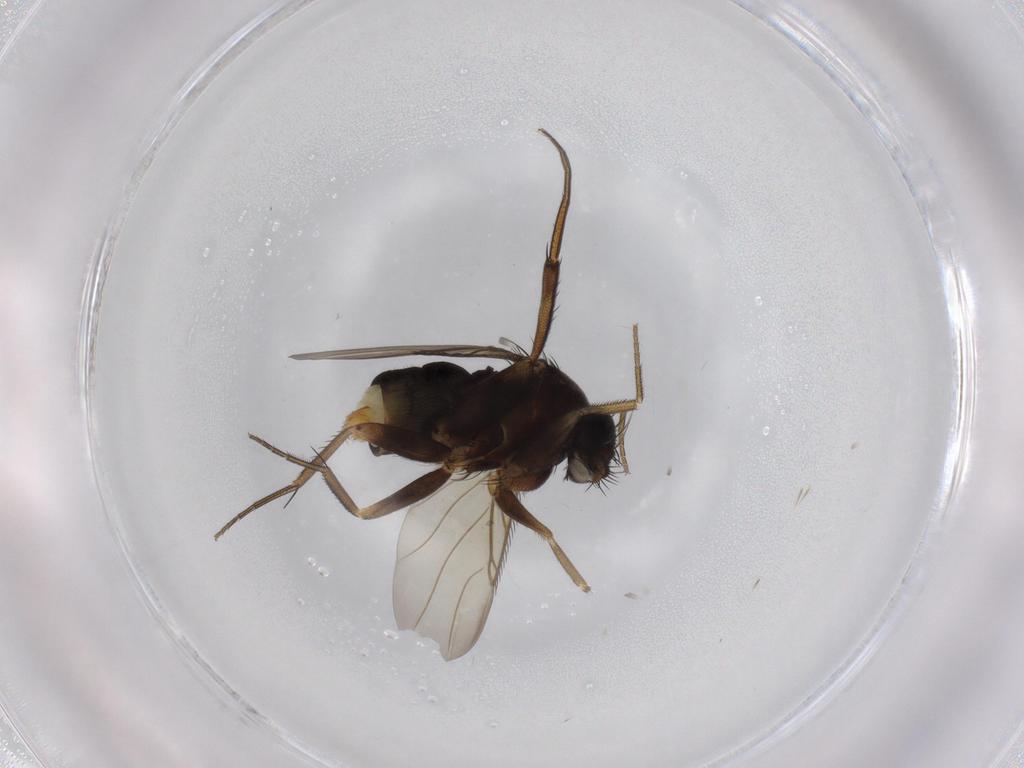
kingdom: Animalia
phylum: Arthropoda
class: Insecta
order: Diptera
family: Phoridae
